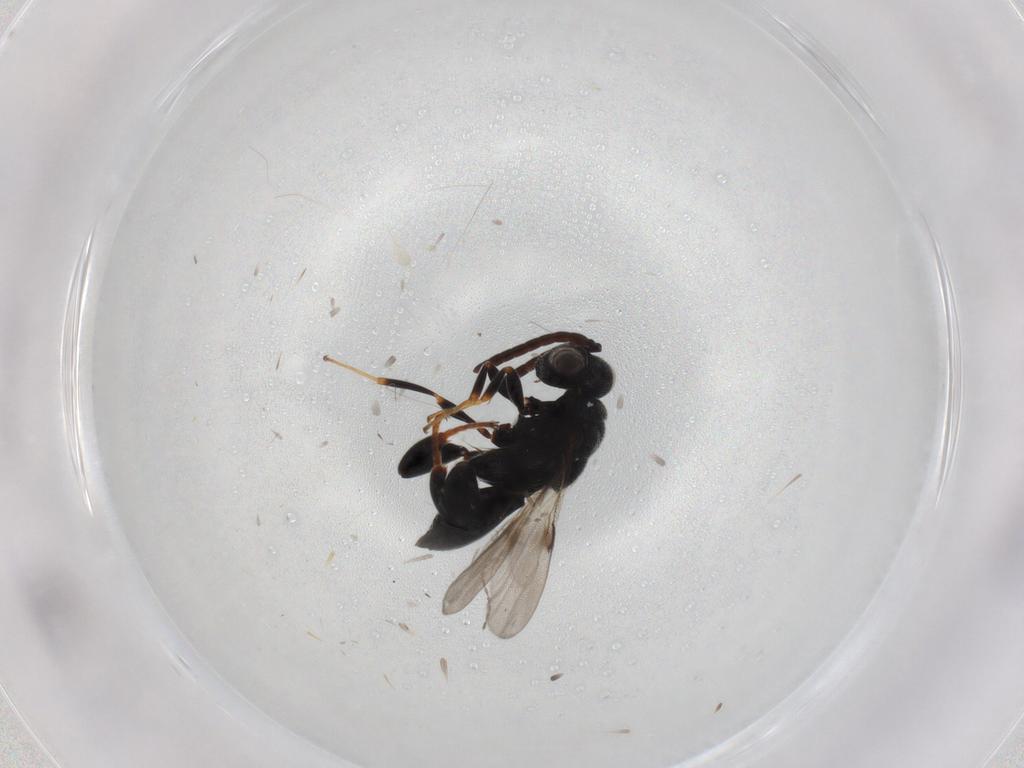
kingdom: Animalia
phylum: Arthropoda
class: Insecta
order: Hymenoptera
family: Chalcididae
